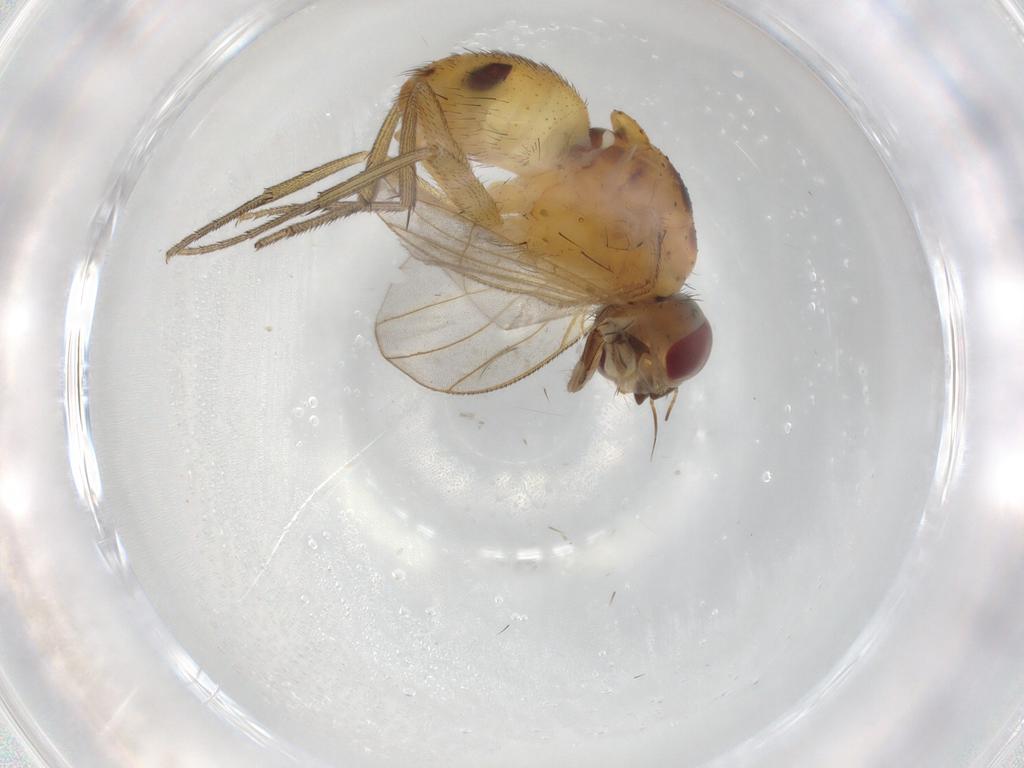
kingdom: Animalia
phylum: Arthropoda
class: Insecta
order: Diptera
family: Muscidae
